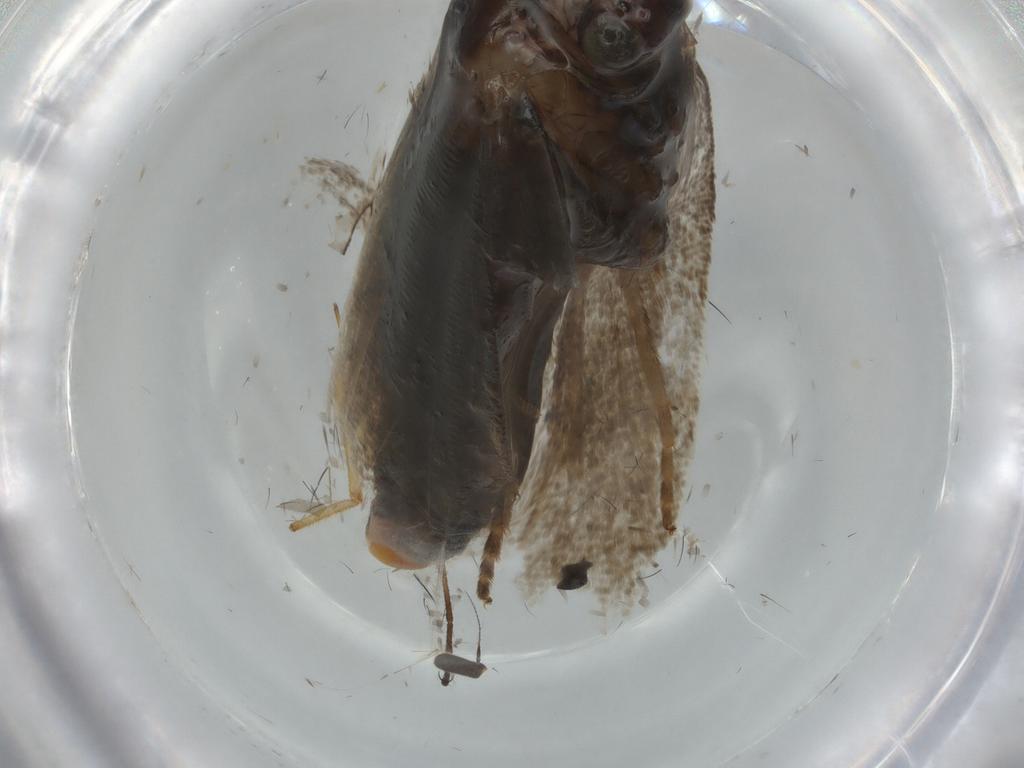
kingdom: Animalia
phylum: Arthropoda
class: Insecta
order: Lepidoptera
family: Tortricidae
